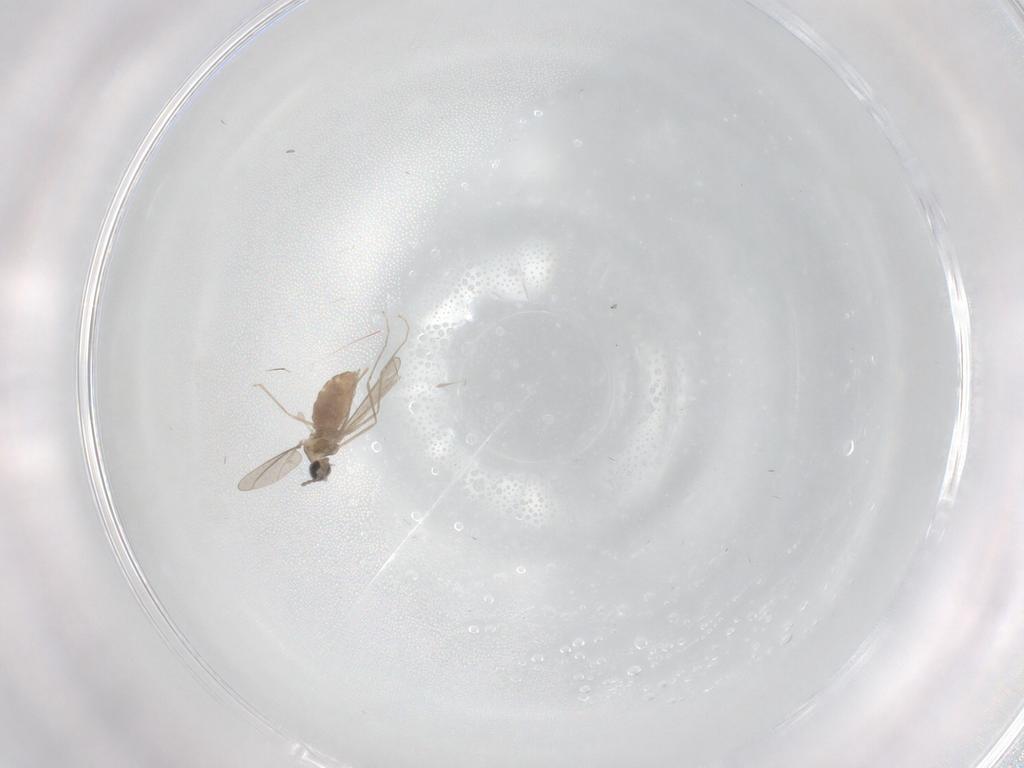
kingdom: Animalia
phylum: Arthropoda
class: Insecta
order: Diptera
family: Cecidomyiidae
